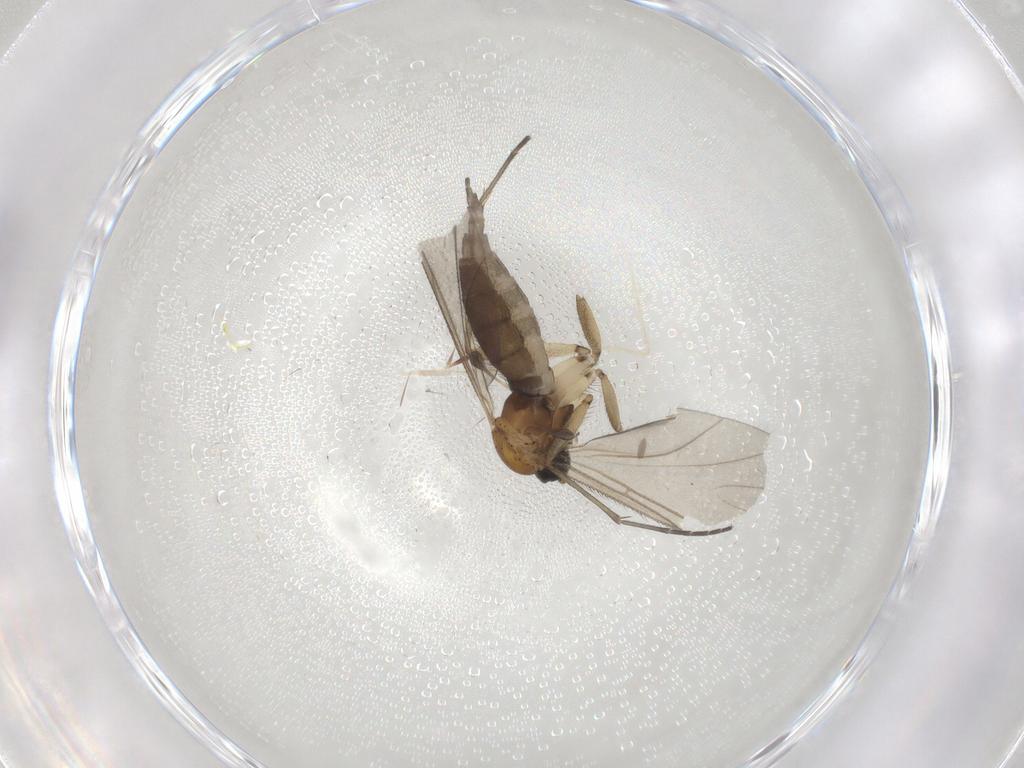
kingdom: Animalia
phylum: Arthropoda
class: Insecta
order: Diptera
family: Sciaridae
